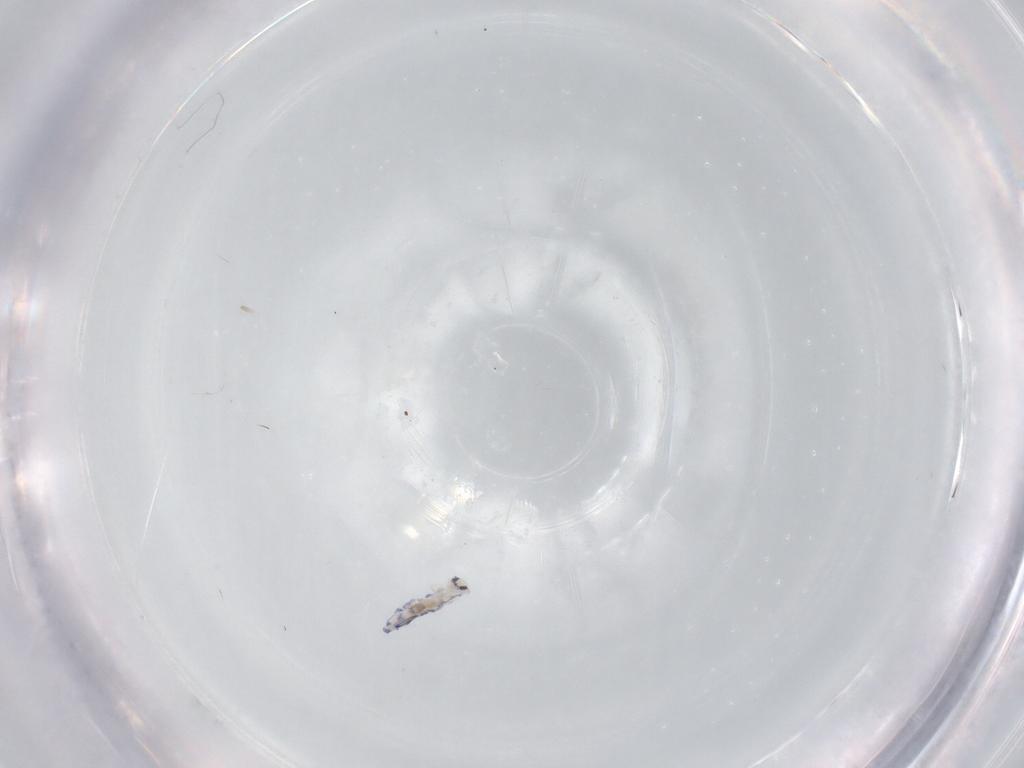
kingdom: Animalia
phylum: Arthropoda
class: Collembola
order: Entomobryomorpha
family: Entomobryidae
